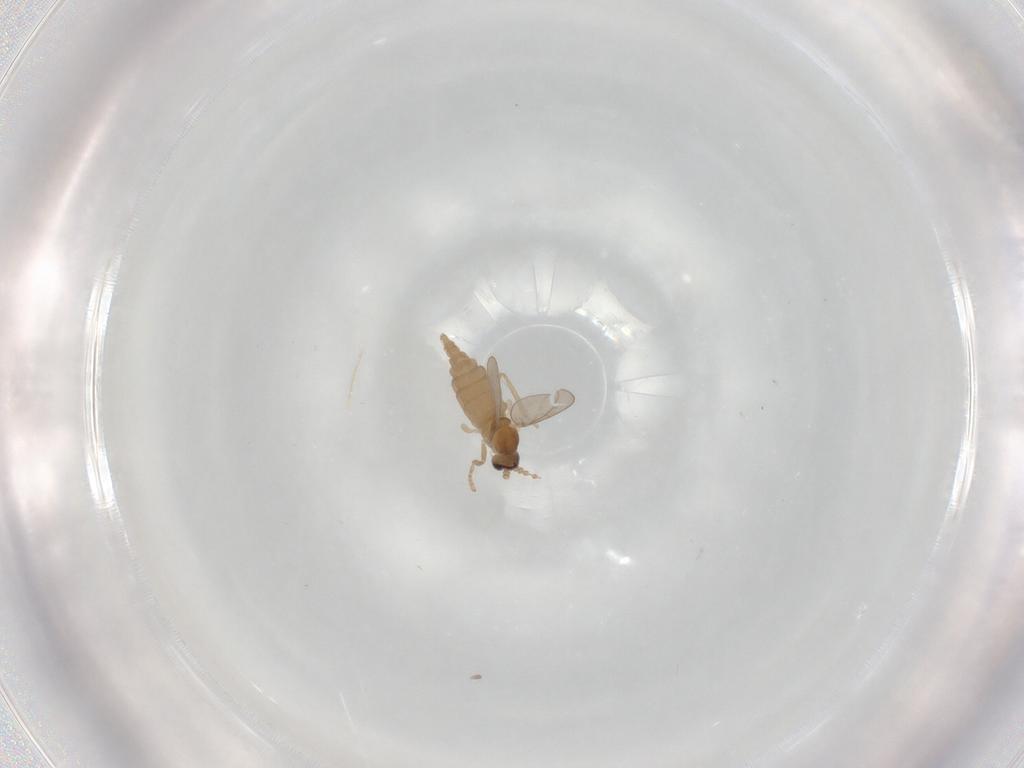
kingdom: Animalia
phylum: Arthropoda
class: Insecta
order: Diptera
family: Cecidomyiidae
